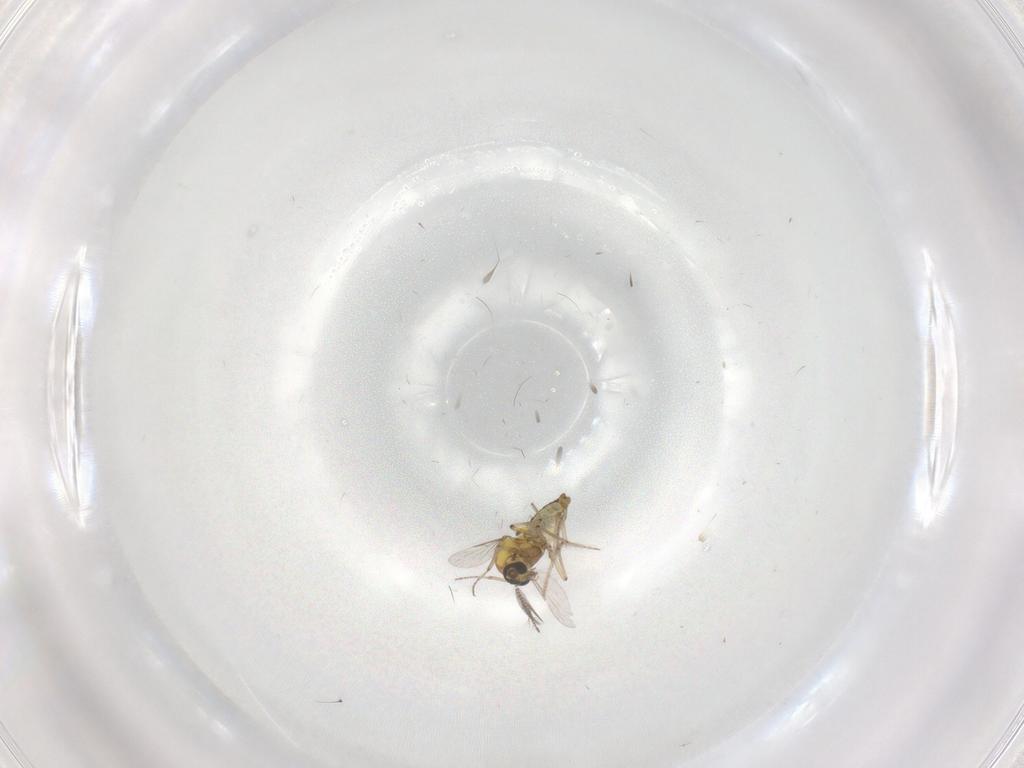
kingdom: Animalia
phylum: Arthropoda
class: Insecta
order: Diptera
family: Ceratopogonidae
